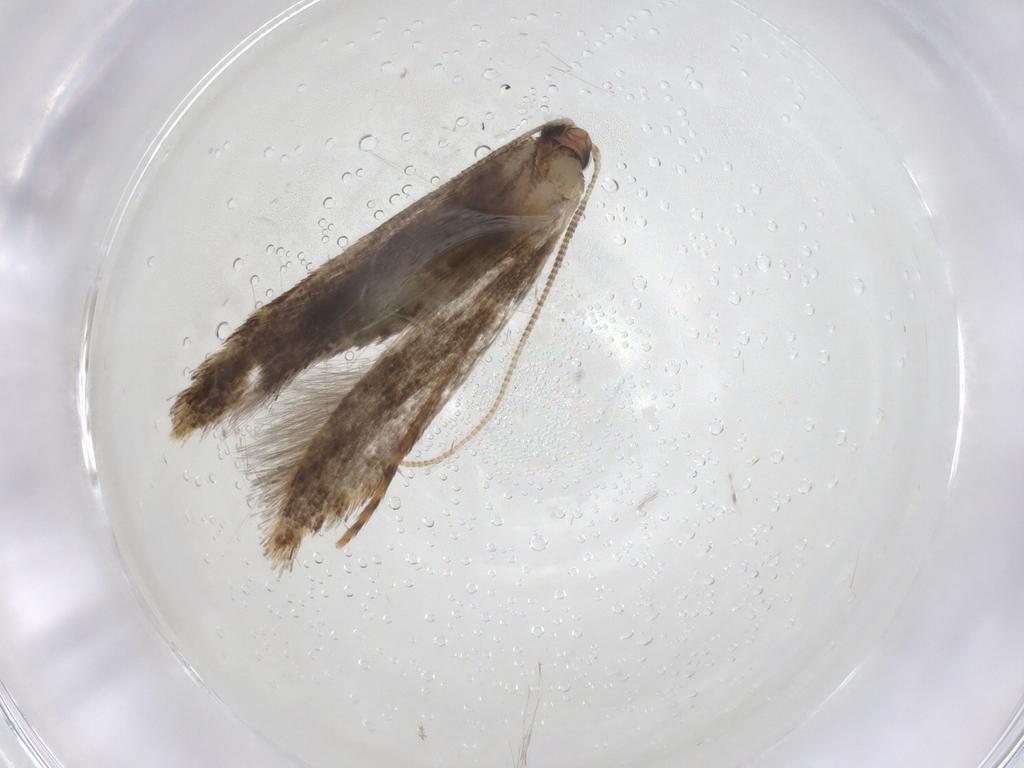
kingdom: Animalia
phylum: Arthropoda
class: Insecta
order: Lepidoptera
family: Tineidae
